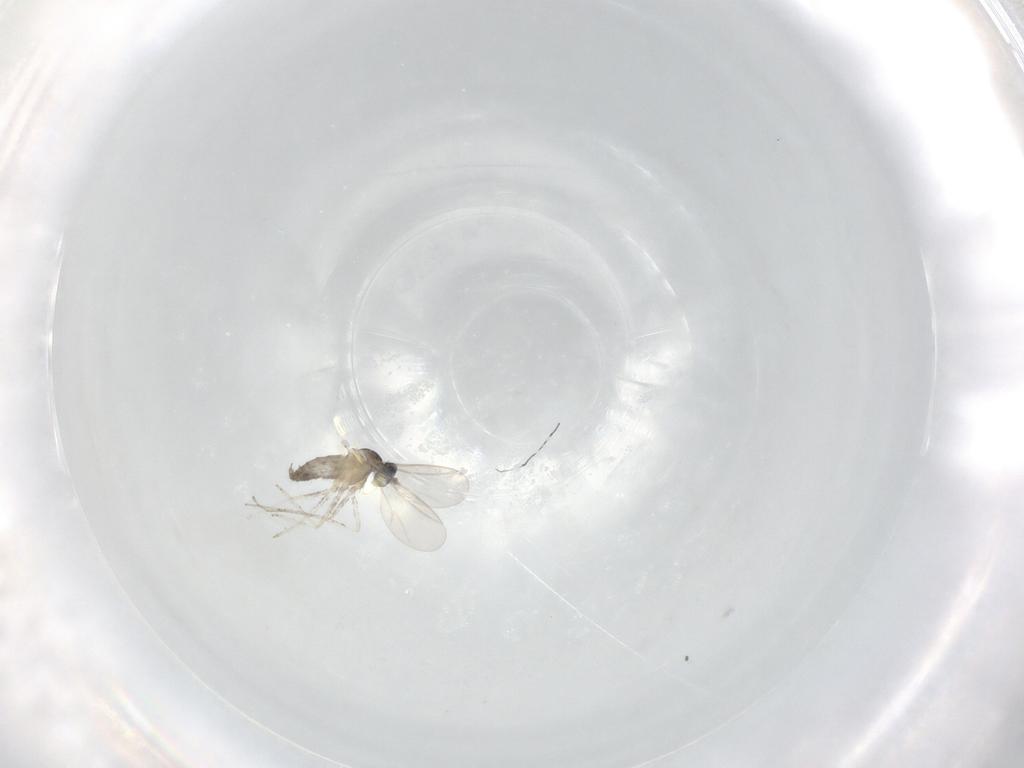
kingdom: Animalia
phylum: Arthropoda
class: Insecta
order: Diptera
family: Cecidomyiidae
